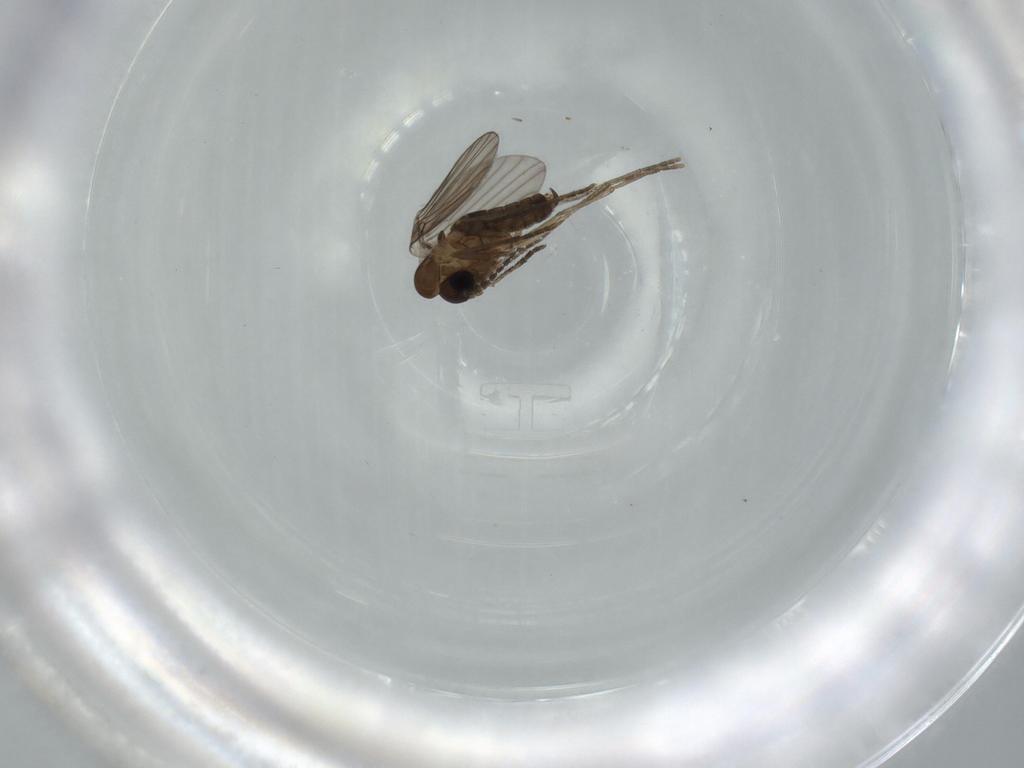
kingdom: Animalia
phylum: Arthropoda
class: Insecta
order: Diptera
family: Psychodidae
